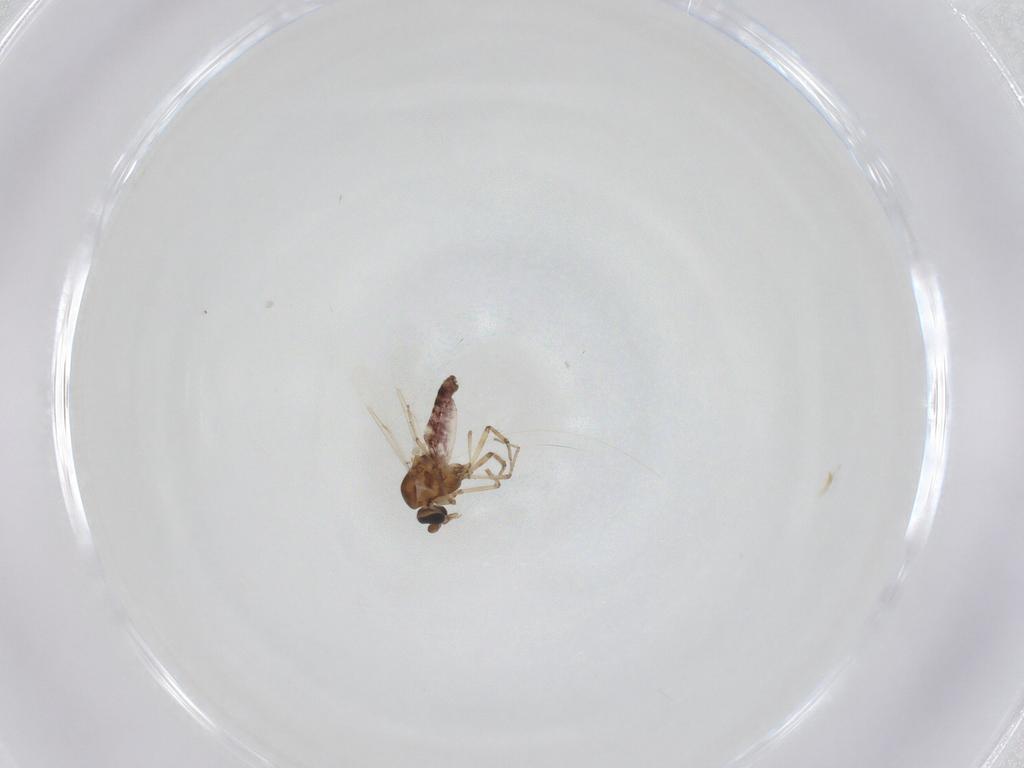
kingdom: Animalia
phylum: Arthropoda
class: Insecta
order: Diptera
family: Ceratopogonidae
